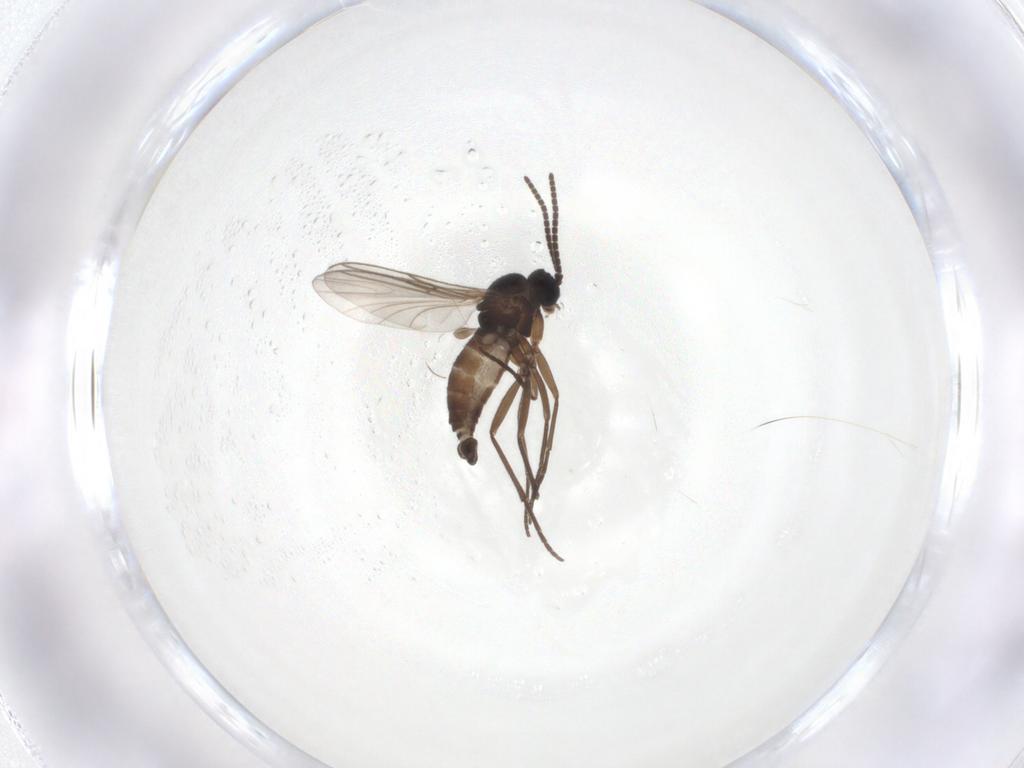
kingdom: Animalia
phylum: Arthropoda
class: Insecta
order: Diptera
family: Sciaridae
